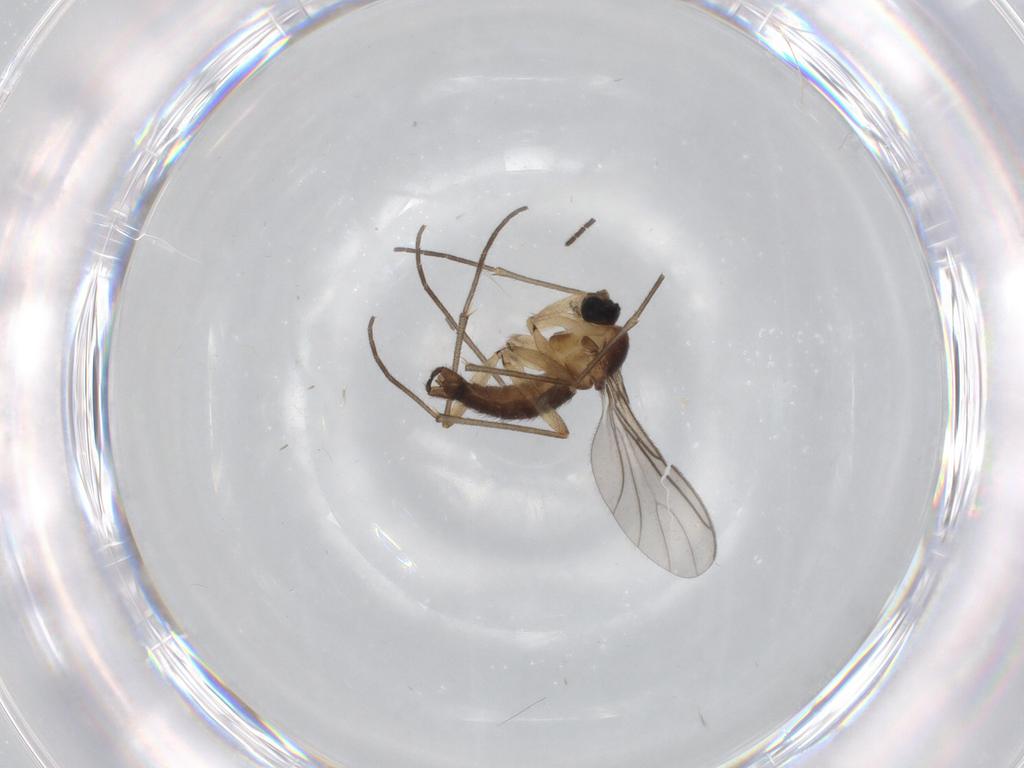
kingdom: Animalia
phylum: Arthropoda
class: Insecta
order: Diptera
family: Sciaridae
